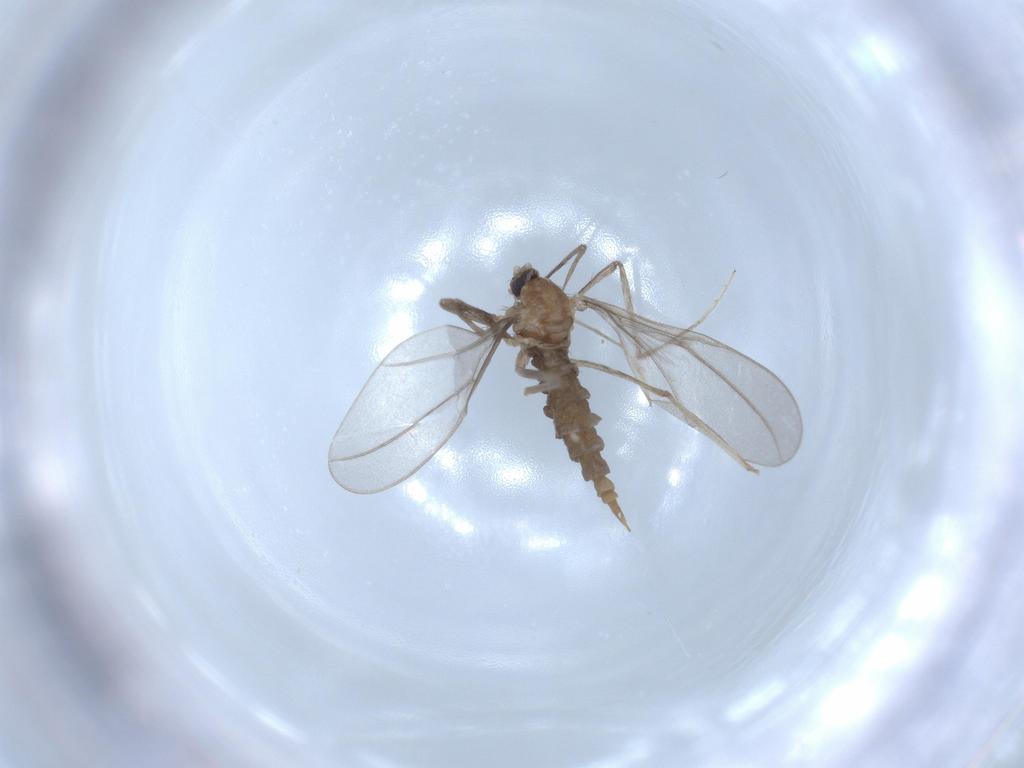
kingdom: Animalia
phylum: Arthropoda
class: Insecta
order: Diptera
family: Cecidomyiidae
